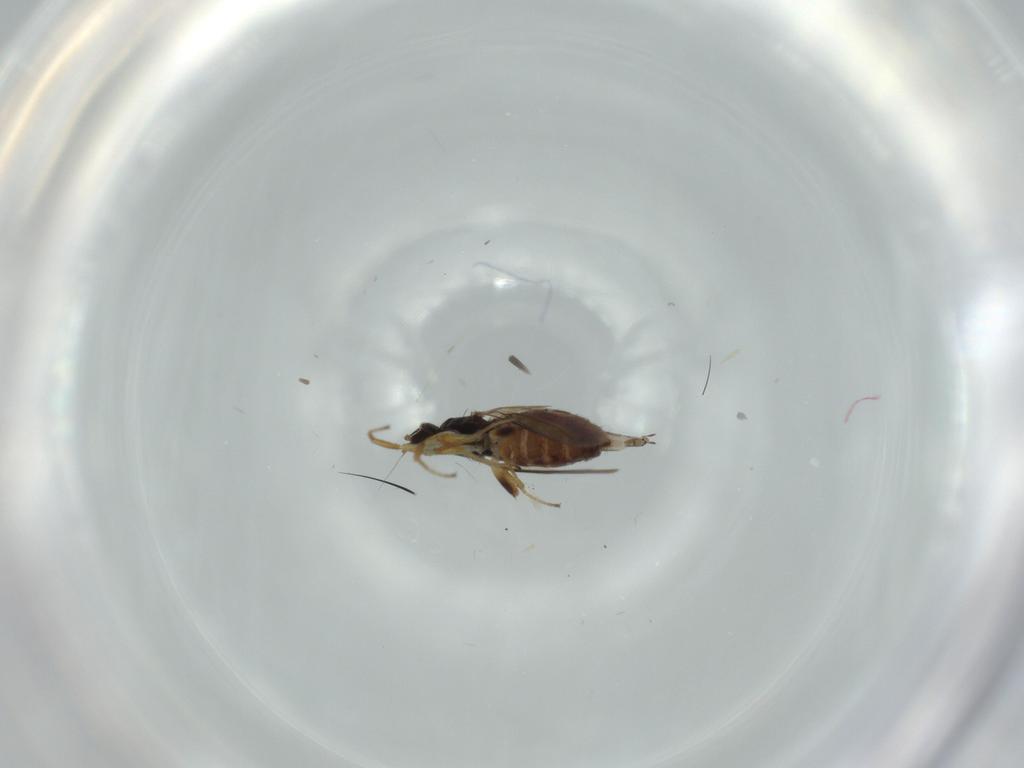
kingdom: Animalia
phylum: Arthropoda
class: Insecta
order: Diptera
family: Hybotidae
